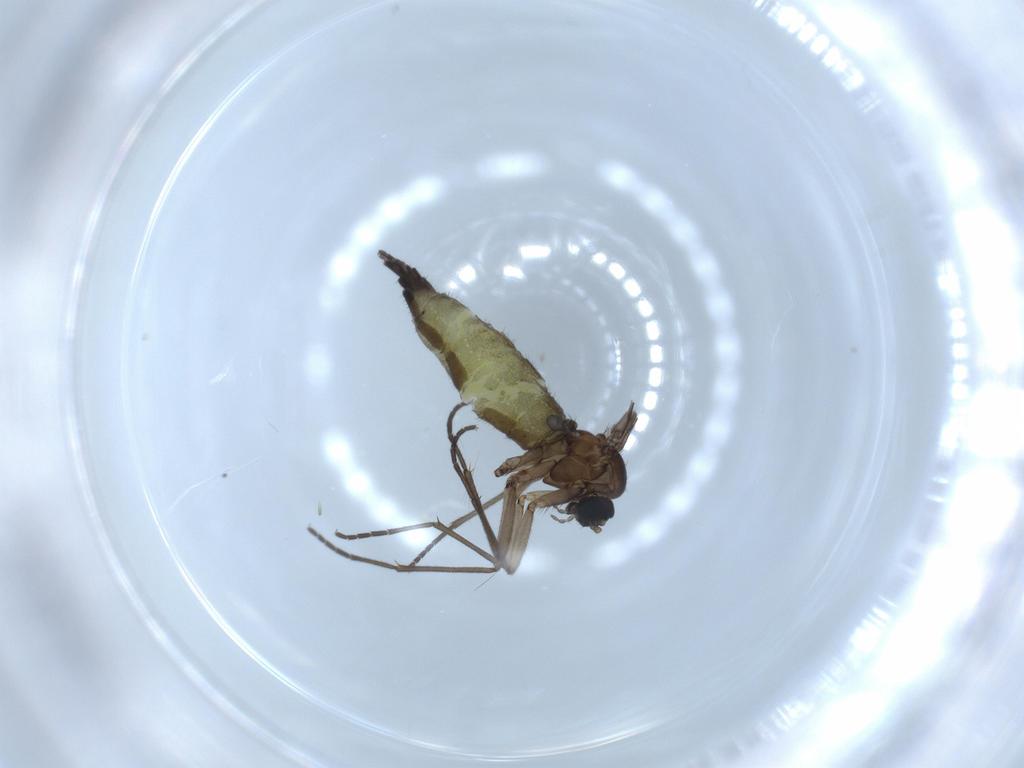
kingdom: Animalia
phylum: Arthropoda
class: Insecta
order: Diptera
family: Sciaridae
